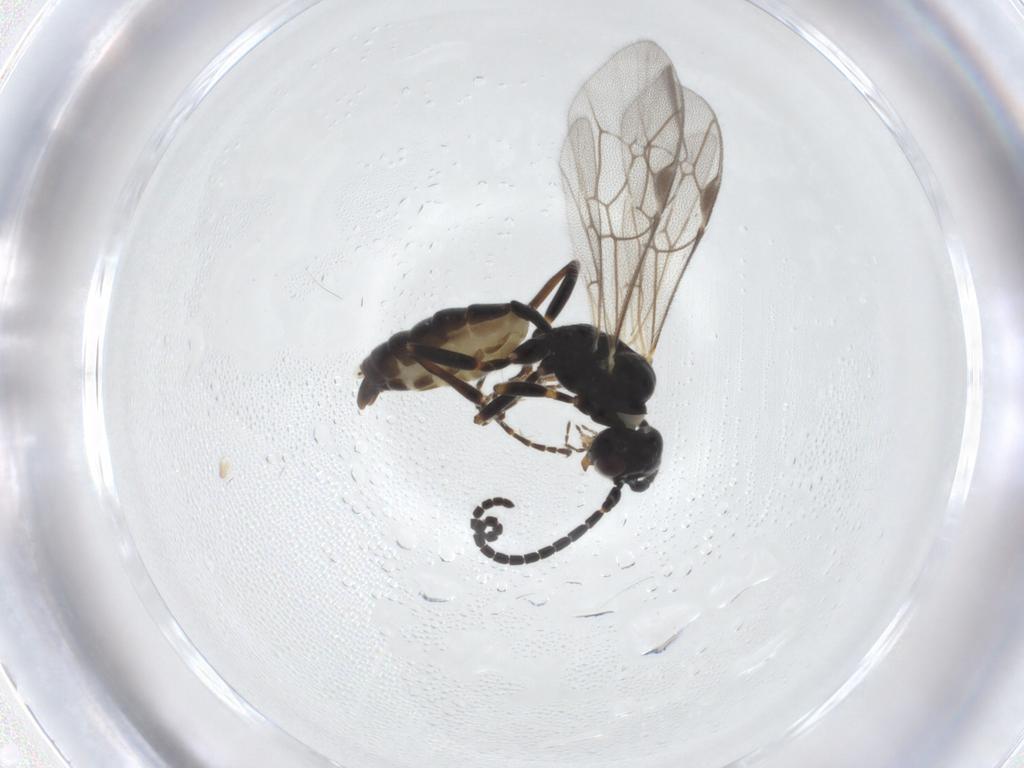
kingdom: Animalia
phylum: Arthropoda
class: Insecta
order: Hymenoptera
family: Ichneumonidae
